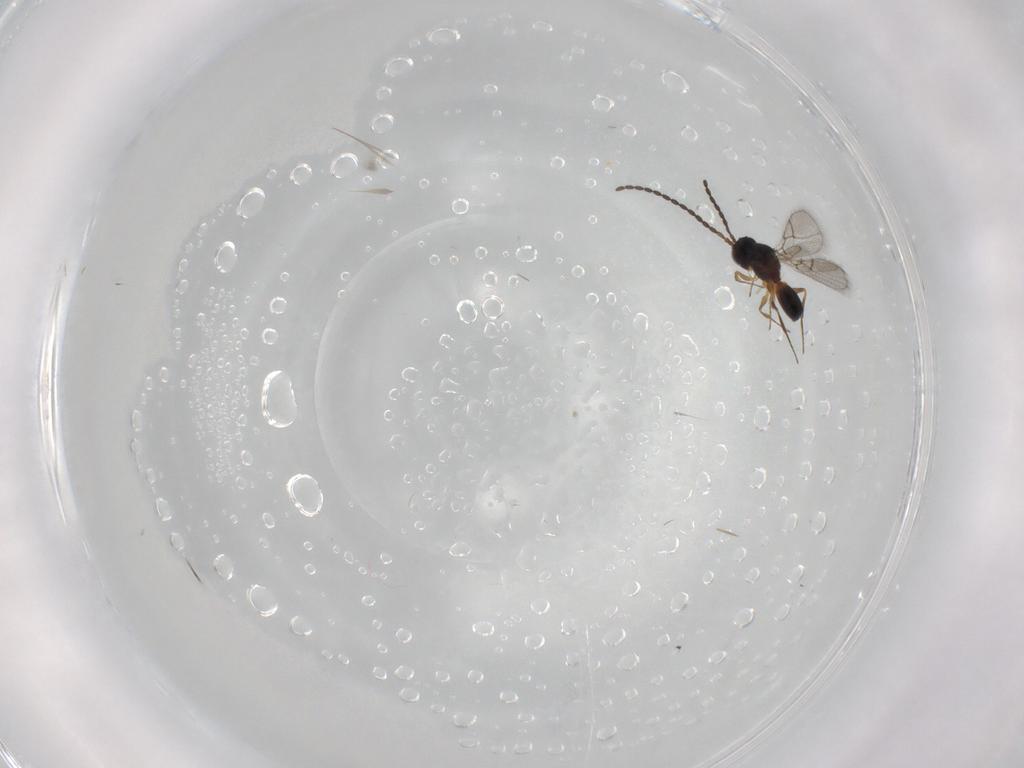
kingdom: Animalia
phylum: Arthropoda
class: Insecta
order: Hymenoptera
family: Figitidae
